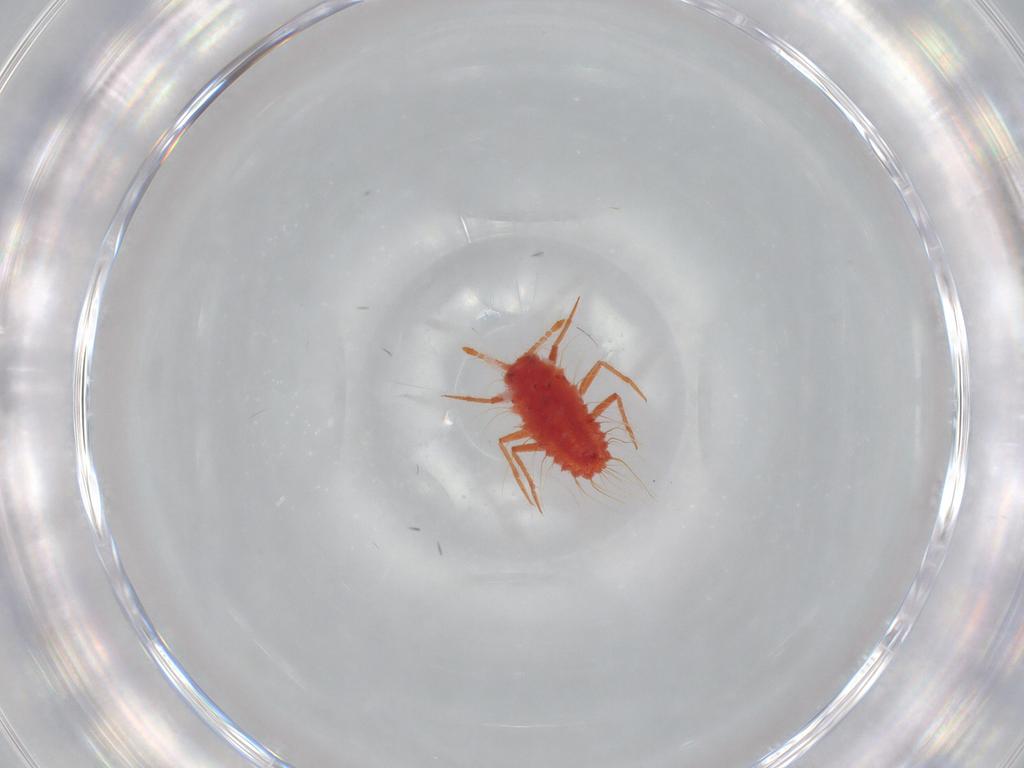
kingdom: Animalia
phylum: Arthropoda
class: Insecta
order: Hemiptera
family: Monophlebidae
